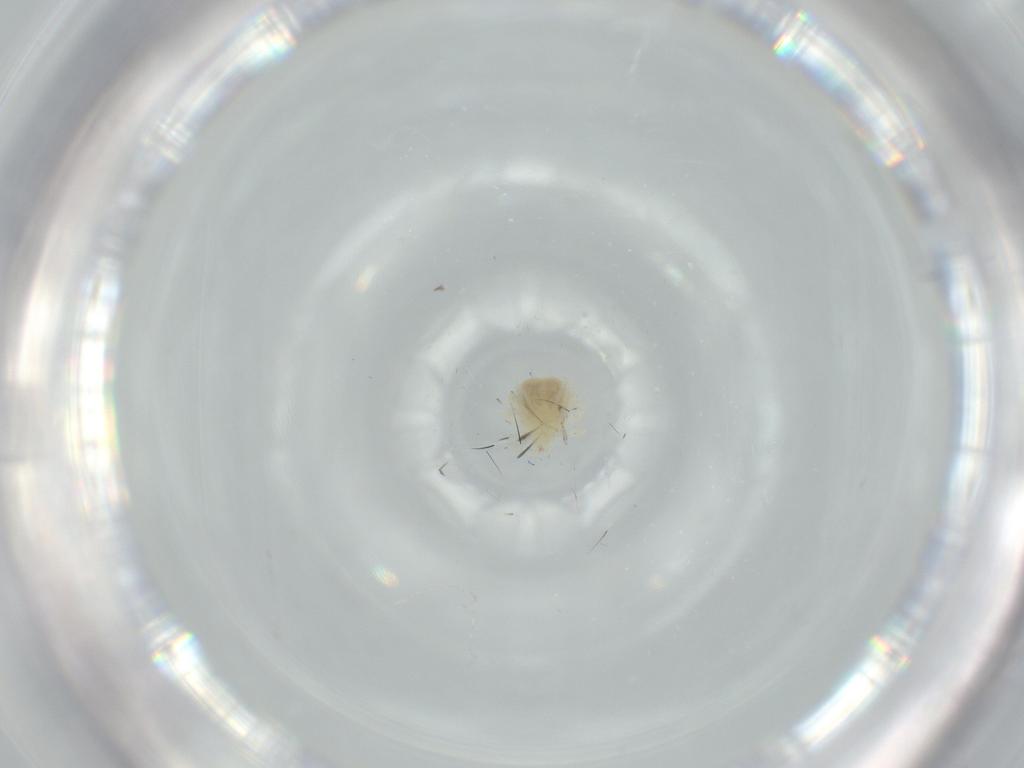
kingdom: Animalia
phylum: Arthropoda
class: Arachnida
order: Trombidiformes
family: Anystidae
